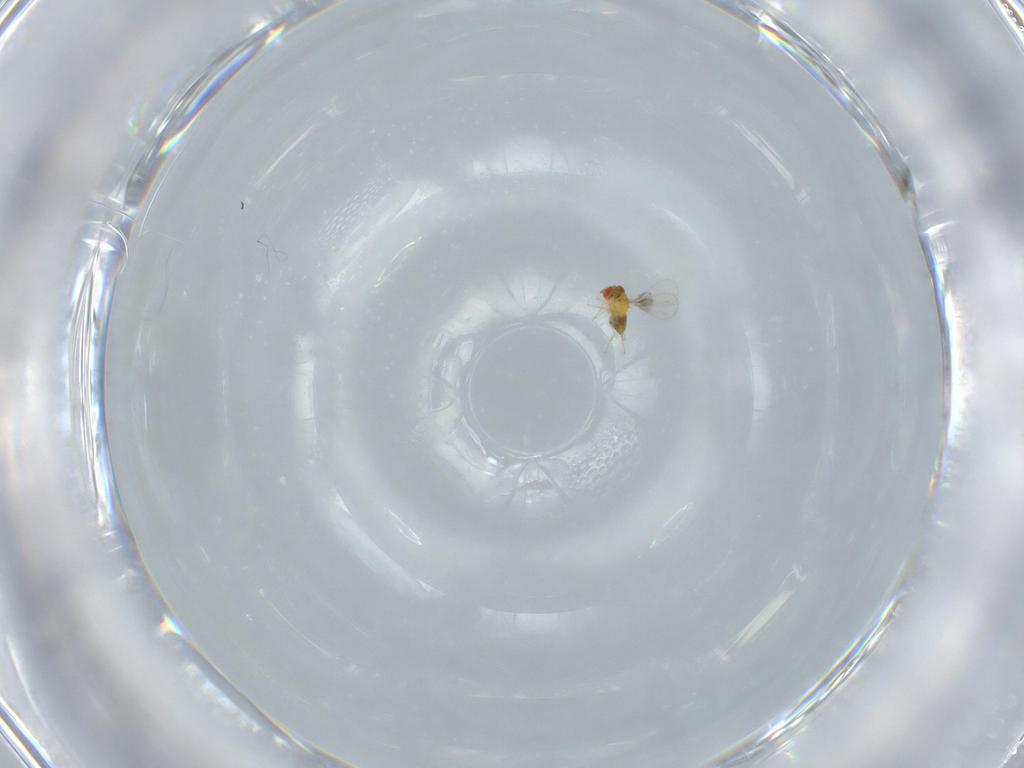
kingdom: Animalia
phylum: Arthropoda
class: Insecta
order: Hymenoptera
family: Trichogrammatidae
